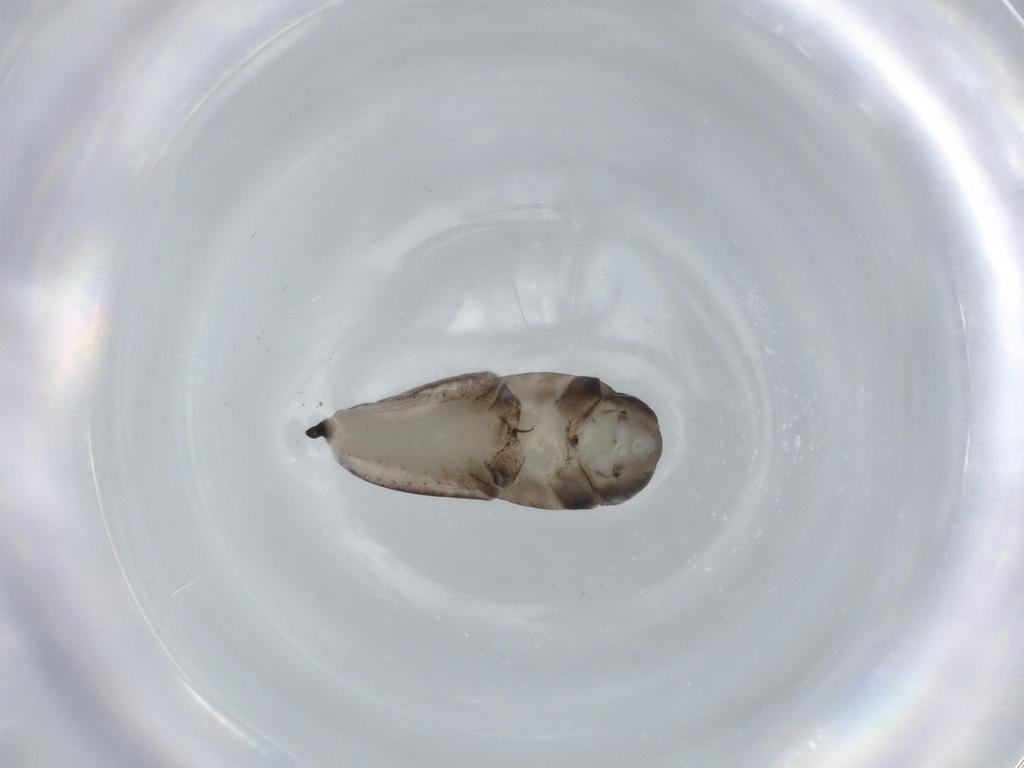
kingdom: Animalia
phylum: Arthropoda
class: Insecta
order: Hymenoptera
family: Rhopalosomatidae
